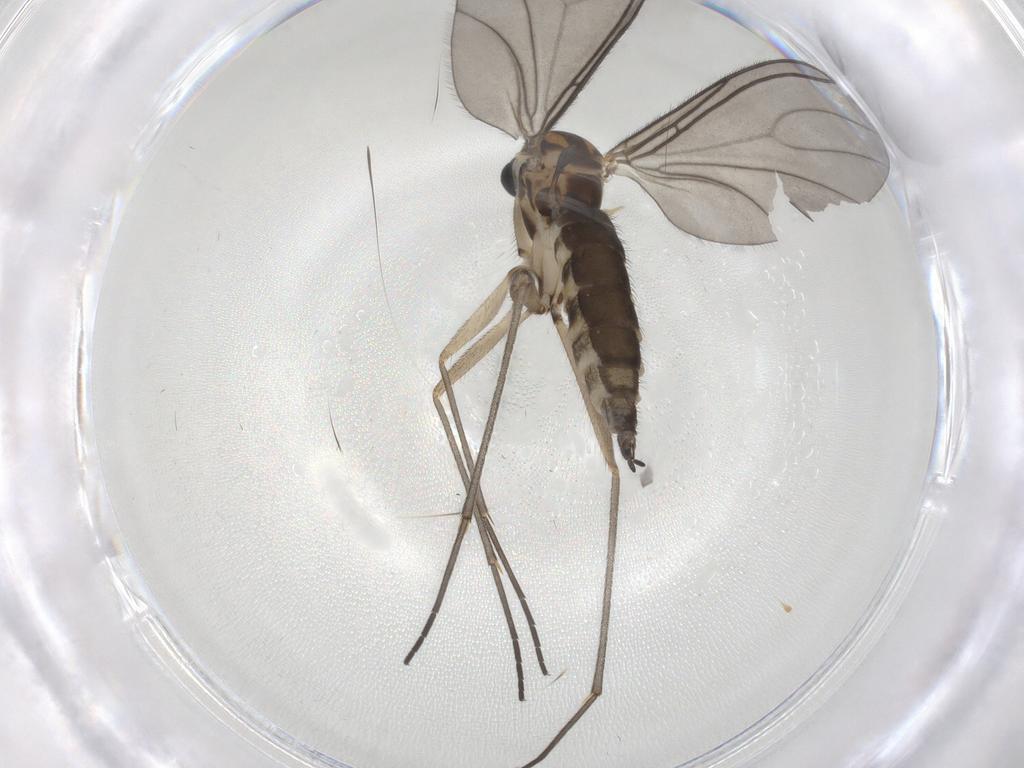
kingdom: Animalia
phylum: Arthropoda
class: Insecta
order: Diptera
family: Sciaridae
